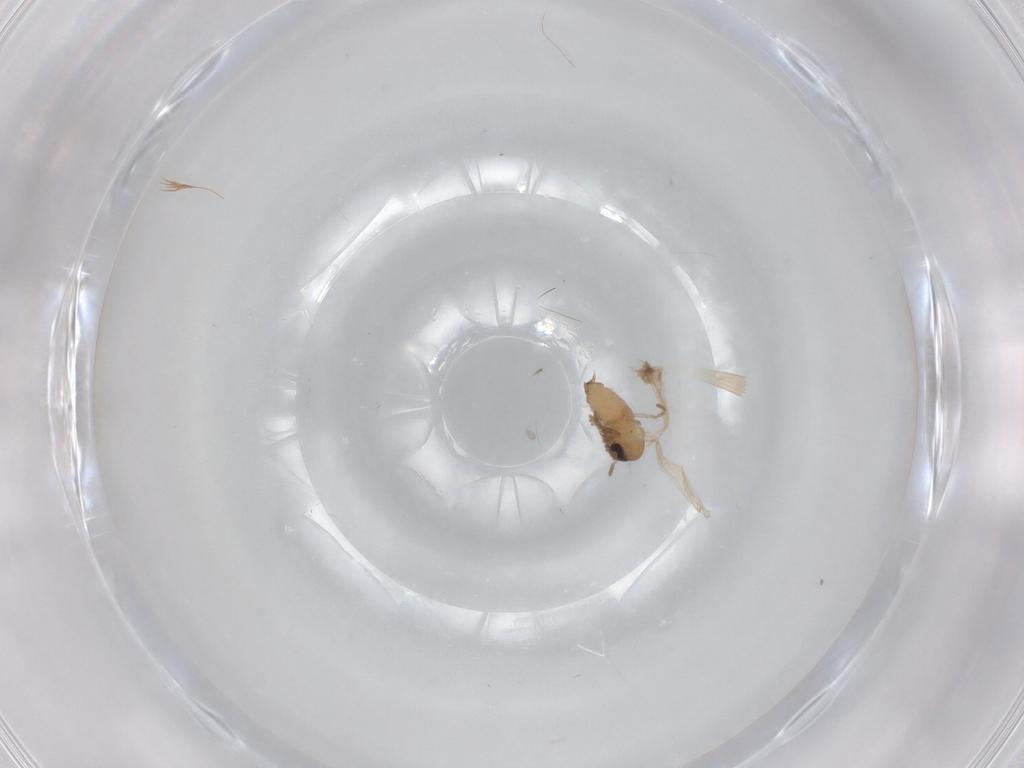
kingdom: Animalia
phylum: Arthropoda
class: Insecta
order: Diptera
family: Psychodidae
